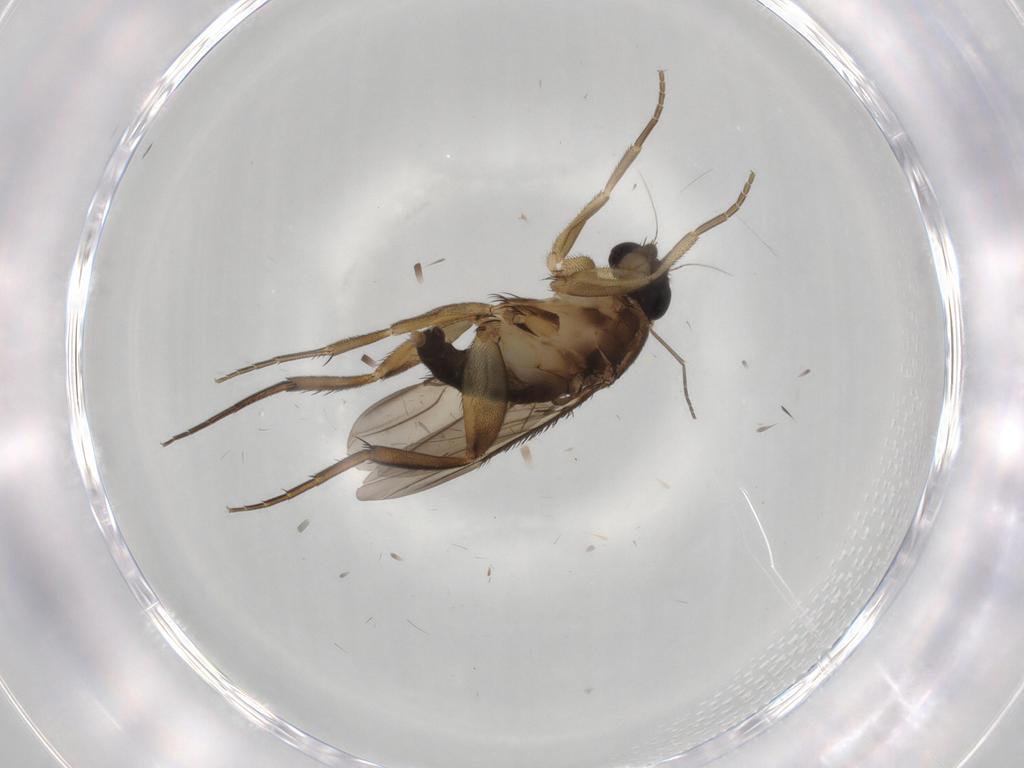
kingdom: Animalia
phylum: Arthropoda
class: Insecta
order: Diptera
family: Phoridae
